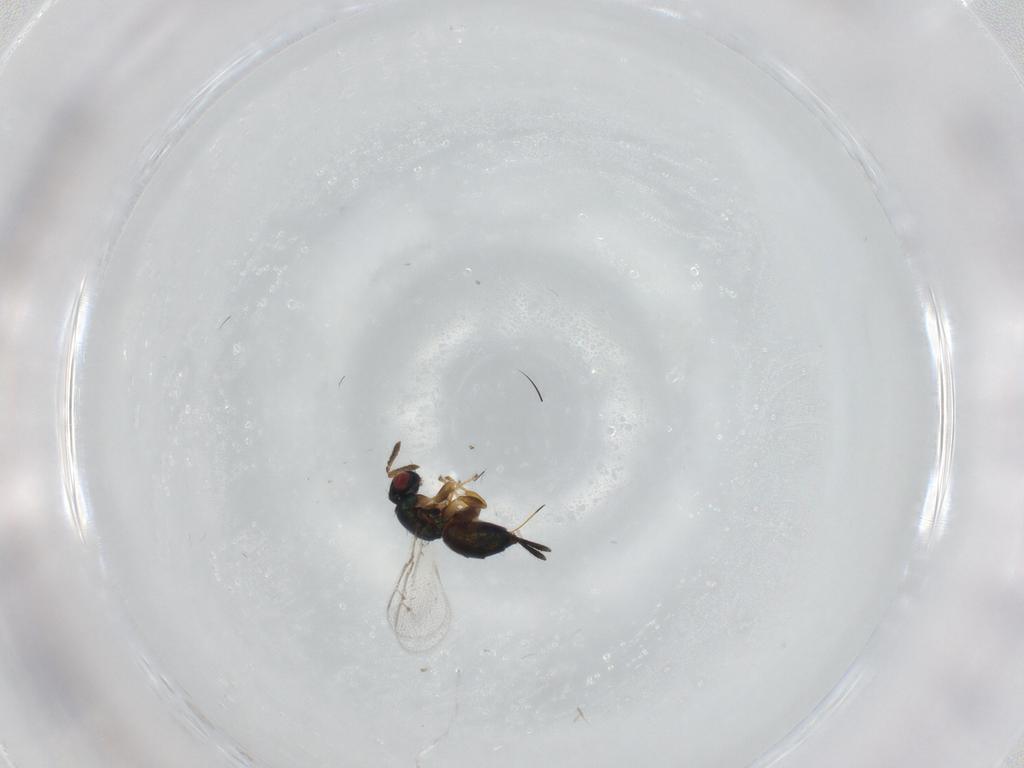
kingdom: Animalia
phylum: Arthropoda
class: Insecta
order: Hymenoptera
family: Torymidae
